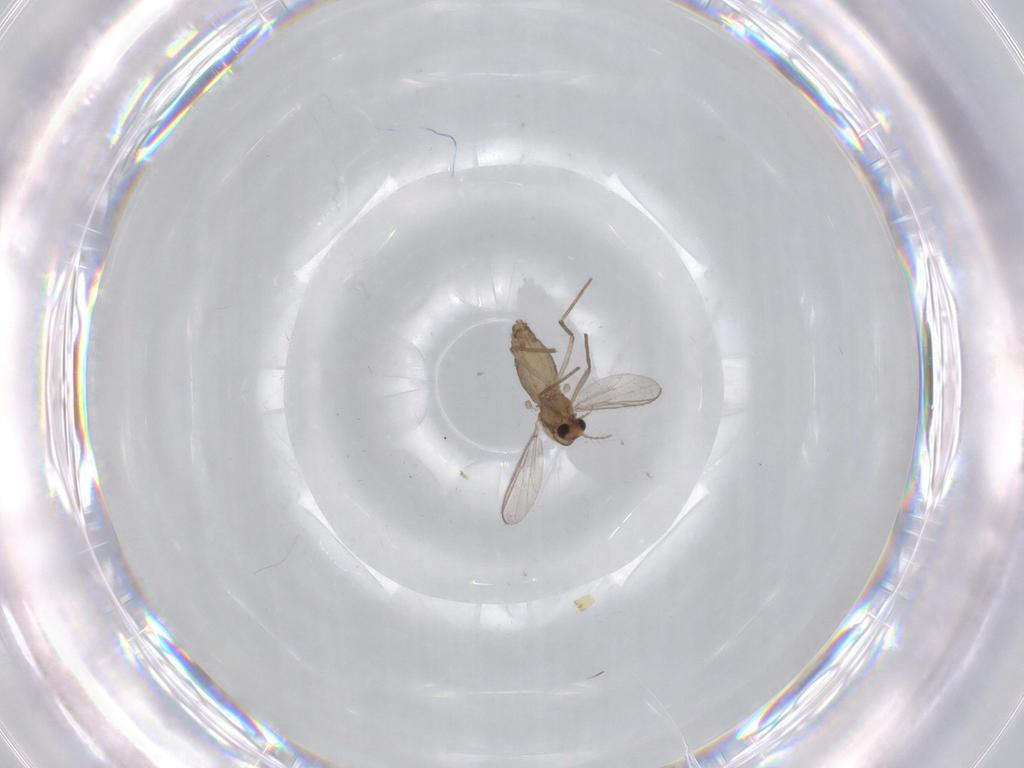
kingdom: Animalia
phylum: Arthropoda
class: Insecta
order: Diptera
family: Chironomidae
